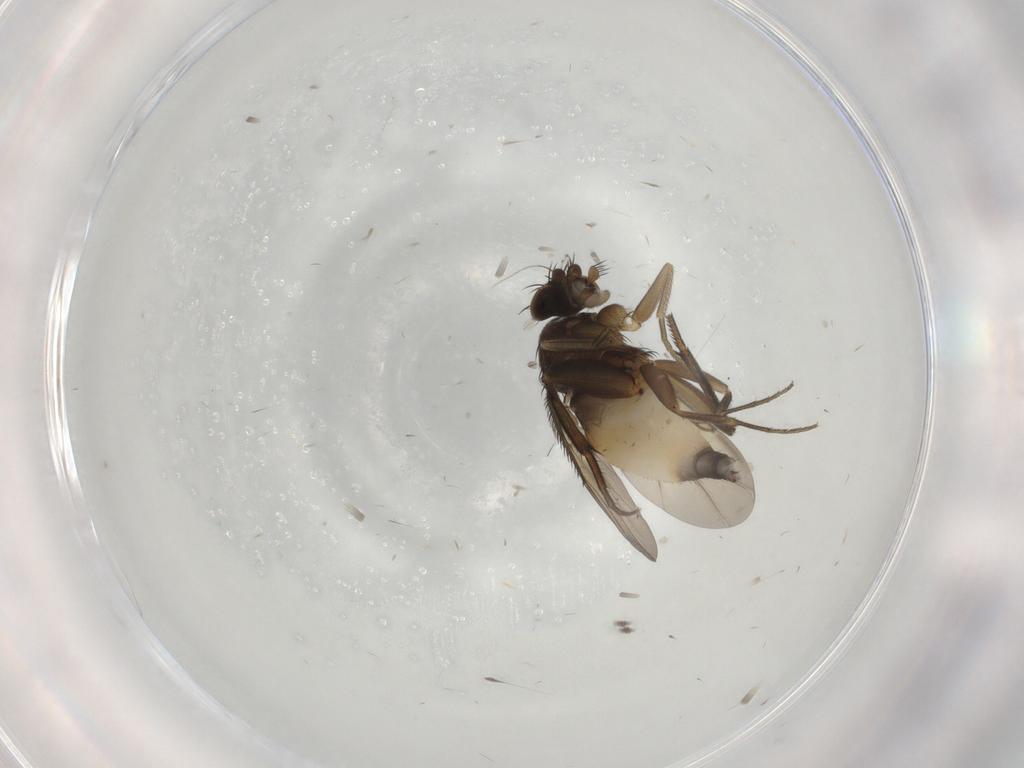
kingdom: Animalia
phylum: Arthropoda
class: Insecta
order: Diptera
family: Phoridae
